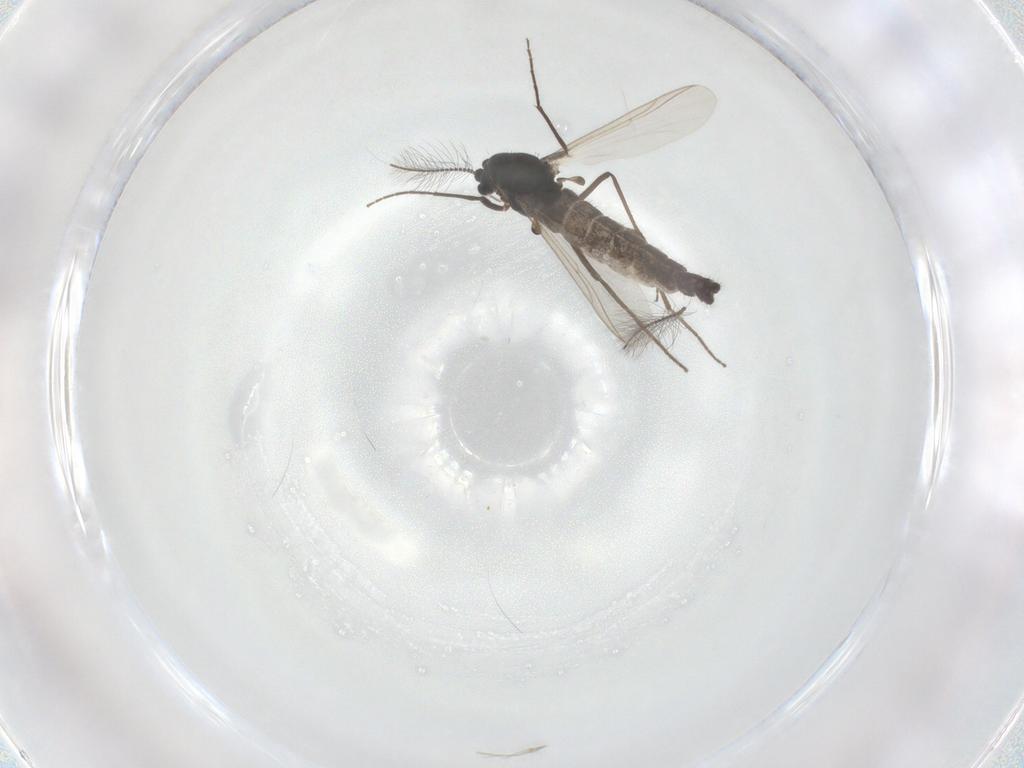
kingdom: Animalia
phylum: Arthropoda
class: Insecta
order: Diptera
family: Chironomidae
